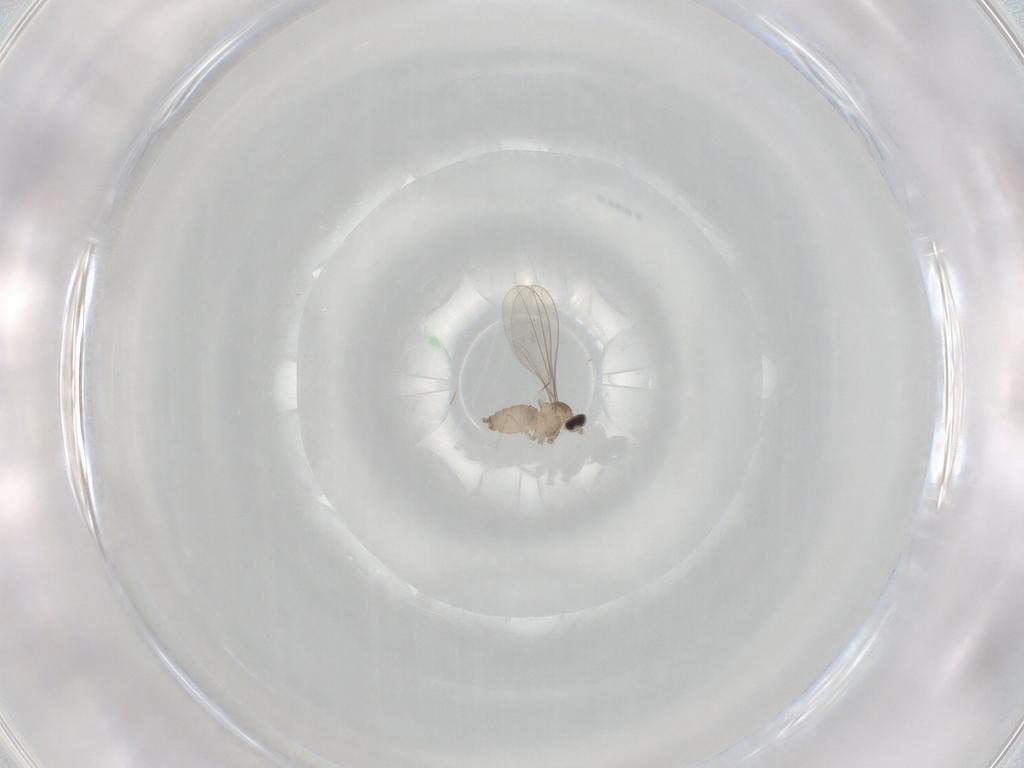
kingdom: Animalia
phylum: Arthropoda
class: Insecta
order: Diptera
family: Cecidomyiidae
